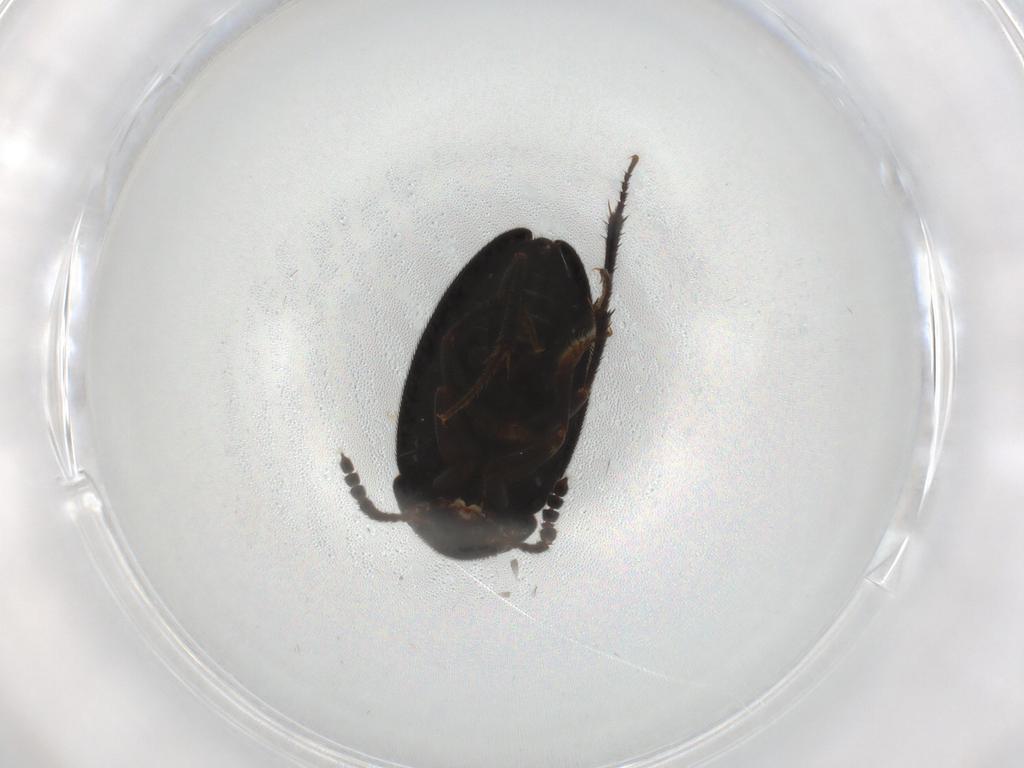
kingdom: Animalia
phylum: Arthropoda
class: Insecta
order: Coleoptera
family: Leiodidae
